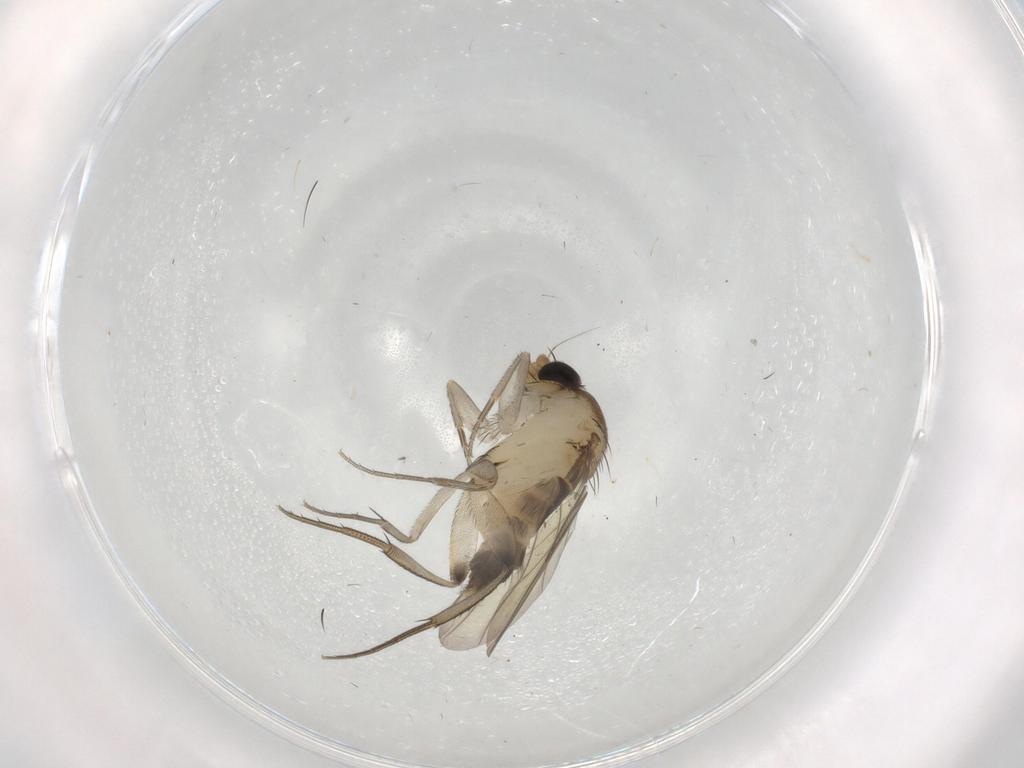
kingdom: Animalia
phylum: Arthropoda
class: Insecta
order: Diptera
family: Phoridae
